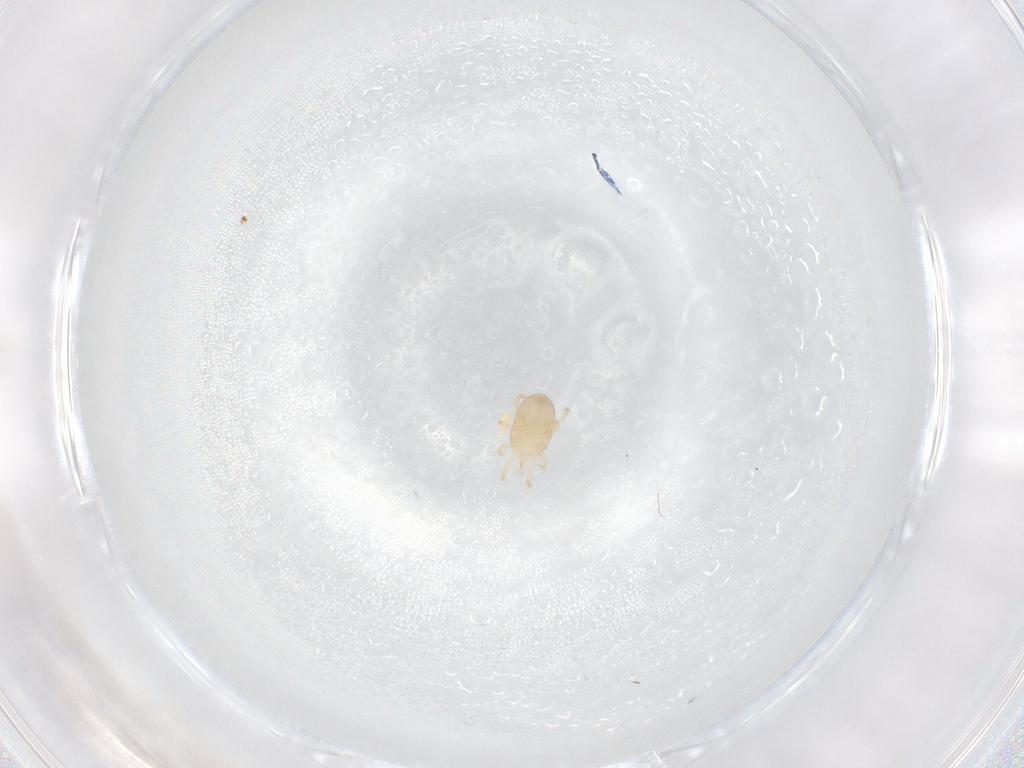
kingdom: Animalia
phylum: Arthropoda
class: Arachnida
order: Mesostigmata
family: Melicharidae
